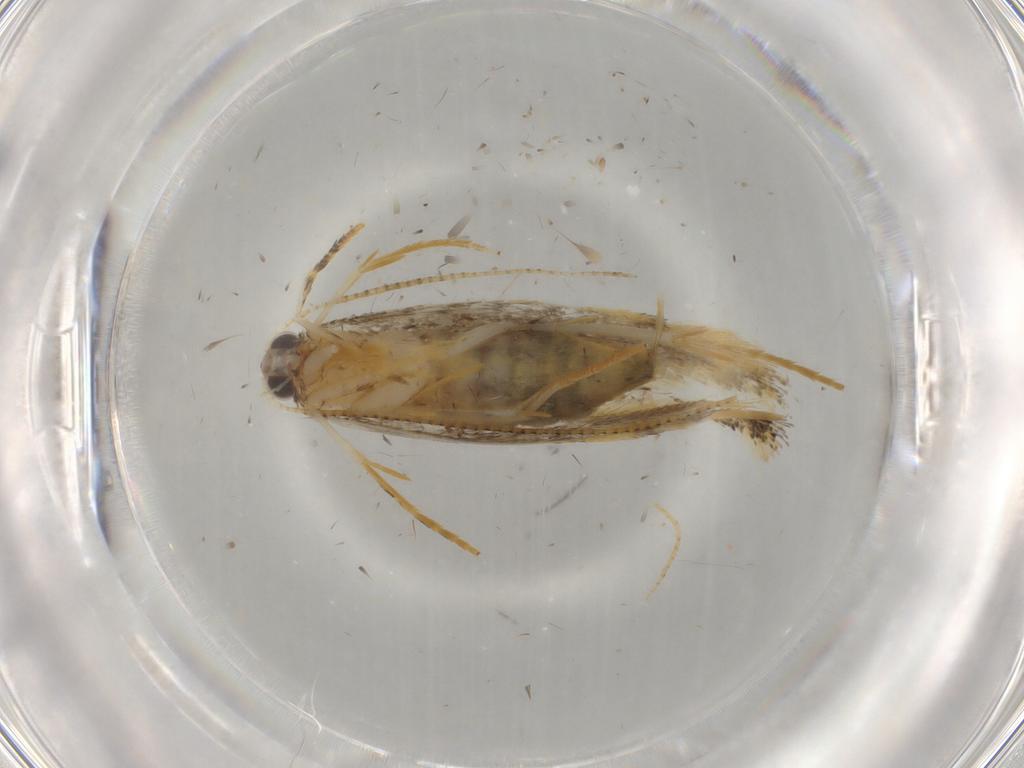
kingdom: Animalia
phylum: Arthropoda
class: Insecta
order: Lepidoptera
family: Tineidae
